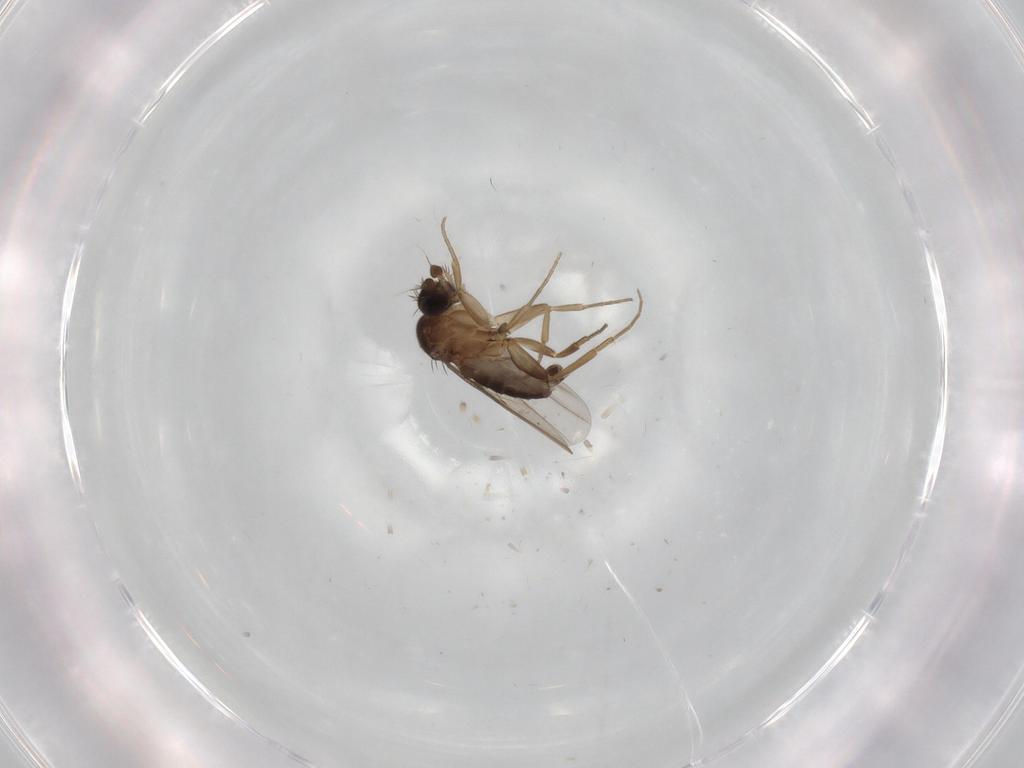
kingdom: Animalia
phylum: Arthropoda
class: Insecta
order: Diptera
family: Phoridae
